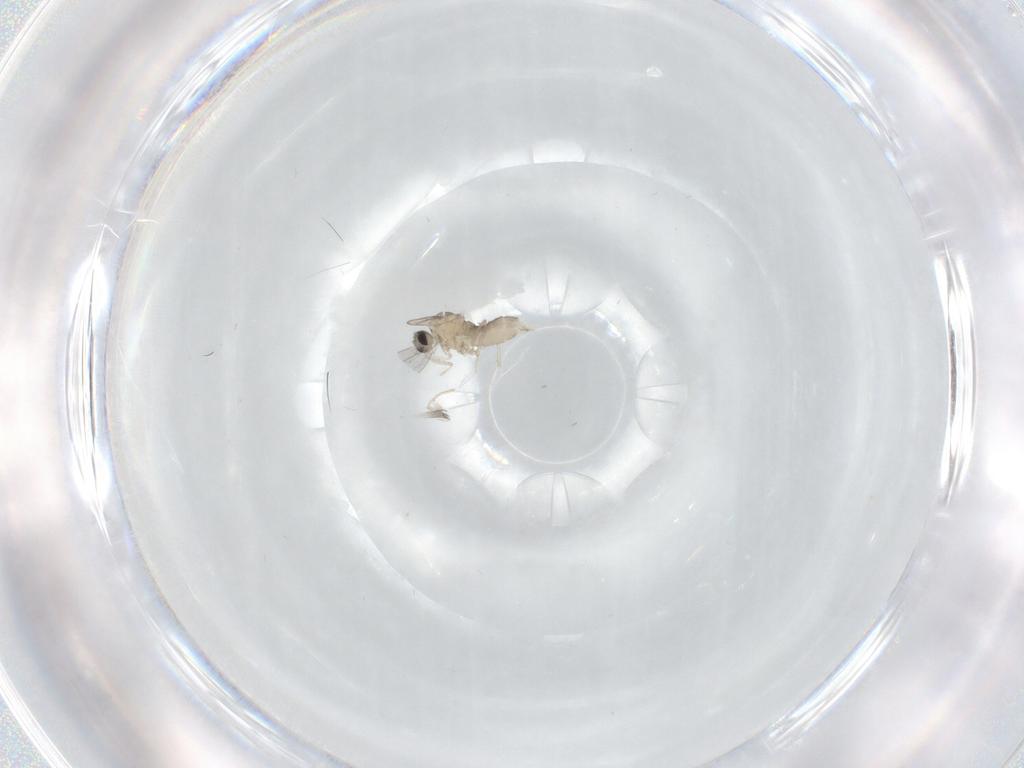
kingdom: Animalia
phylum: Arthropoda
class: Insecta
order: Diptera
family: Cecidomyiidae
